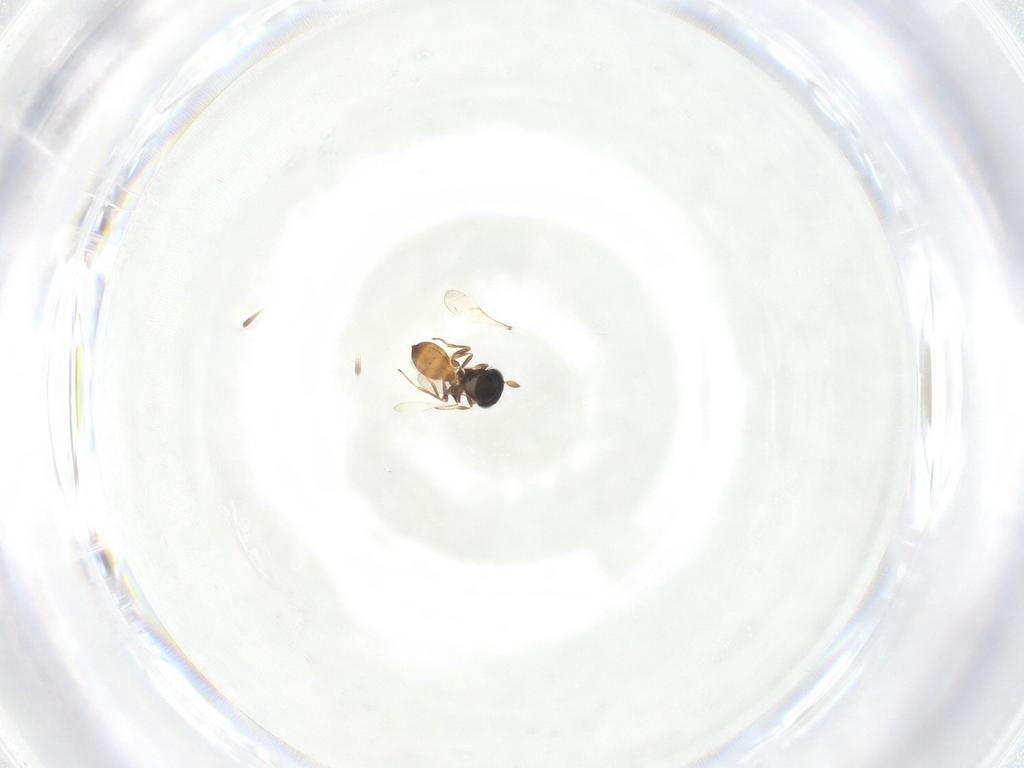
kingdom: Animalia
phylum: Arthropoda
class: Insecta
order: Hymenoptera
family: Scelionidae
